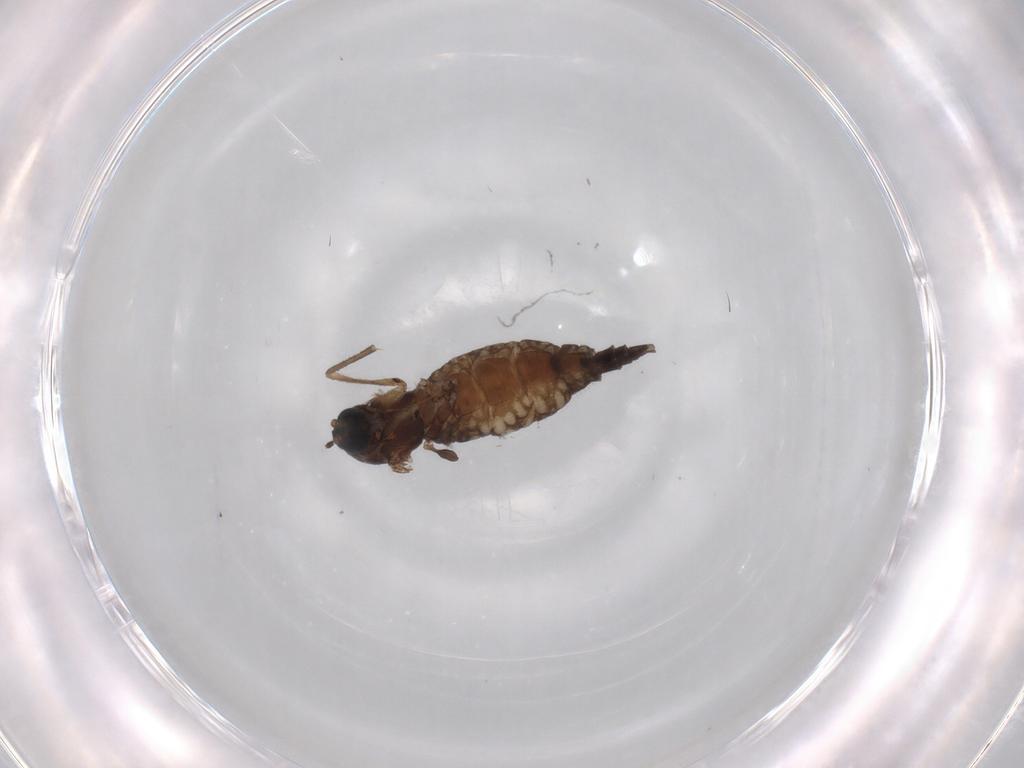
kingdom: Animalia
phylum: Arthropoda
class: Insecta
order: Diptera
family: Sciaridae
